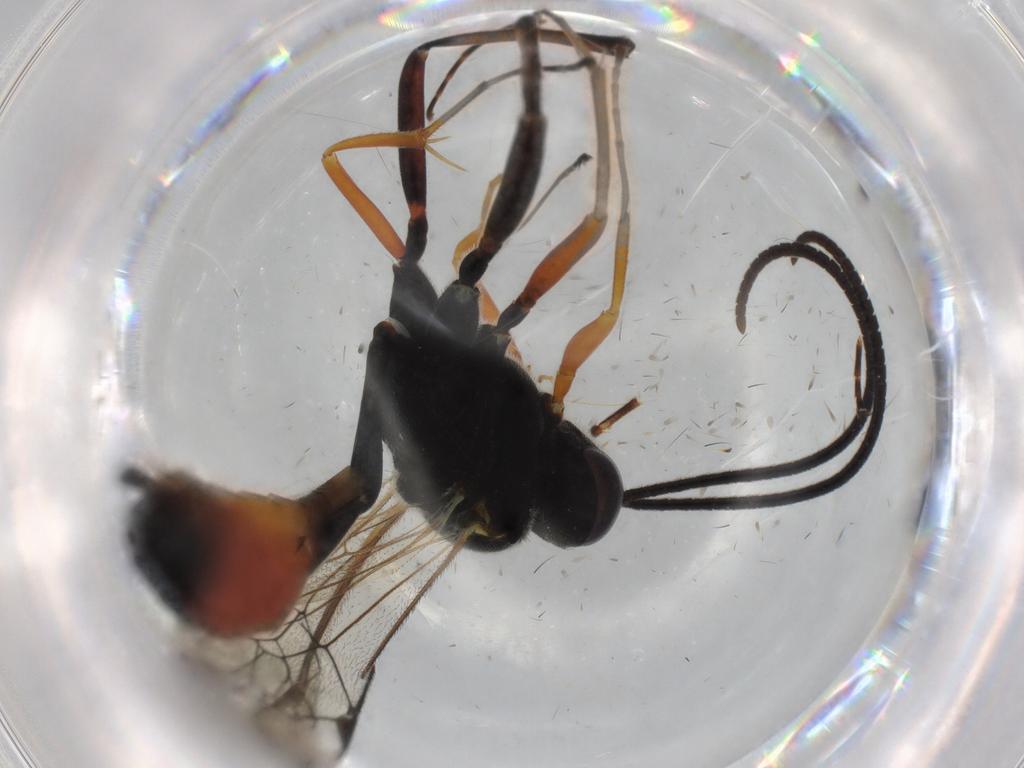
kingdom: Animalia
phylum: Arthropoda
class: Insecta
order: Hymenoptera
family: Ichneumonidae
